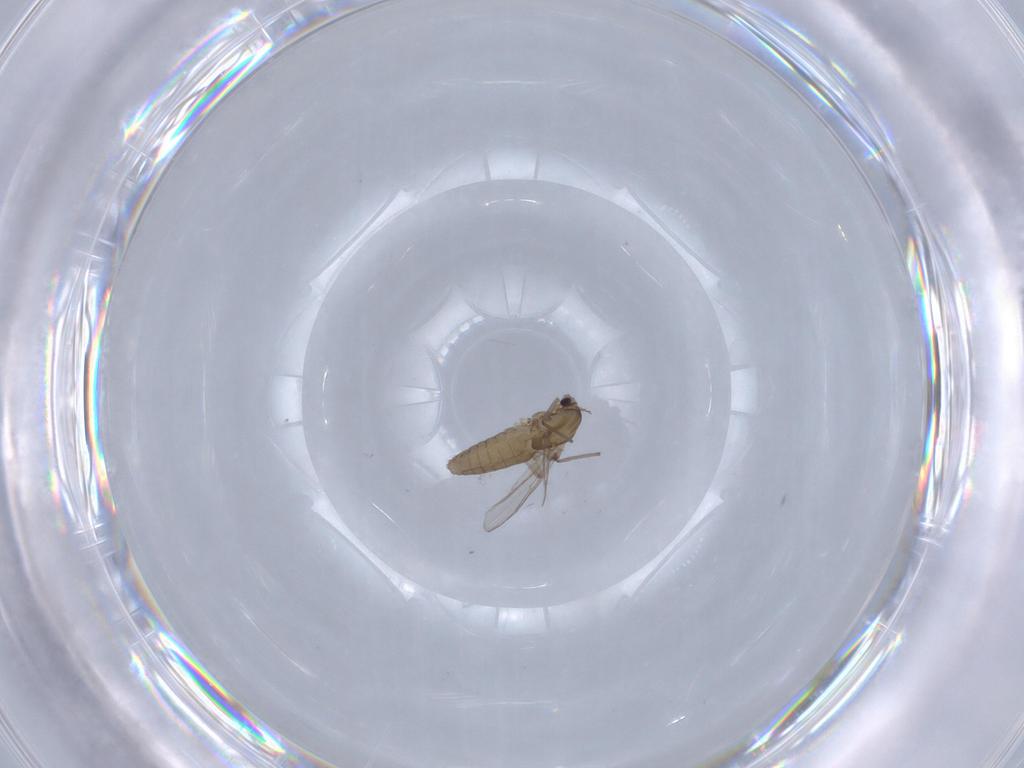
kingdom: Animalia
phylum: Arthropoda
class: Insecta
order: Diptera
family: Chironomidae
